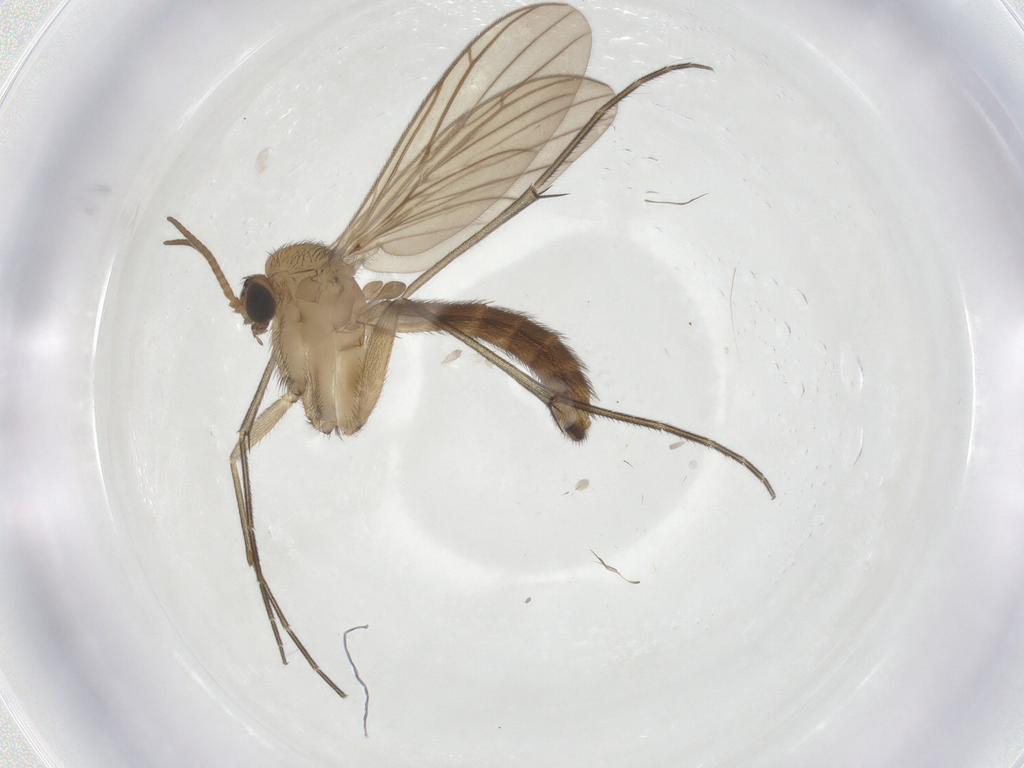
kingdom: Animalia
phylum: Arthropoda
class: Insecta
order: Diptera
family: Muscidae
